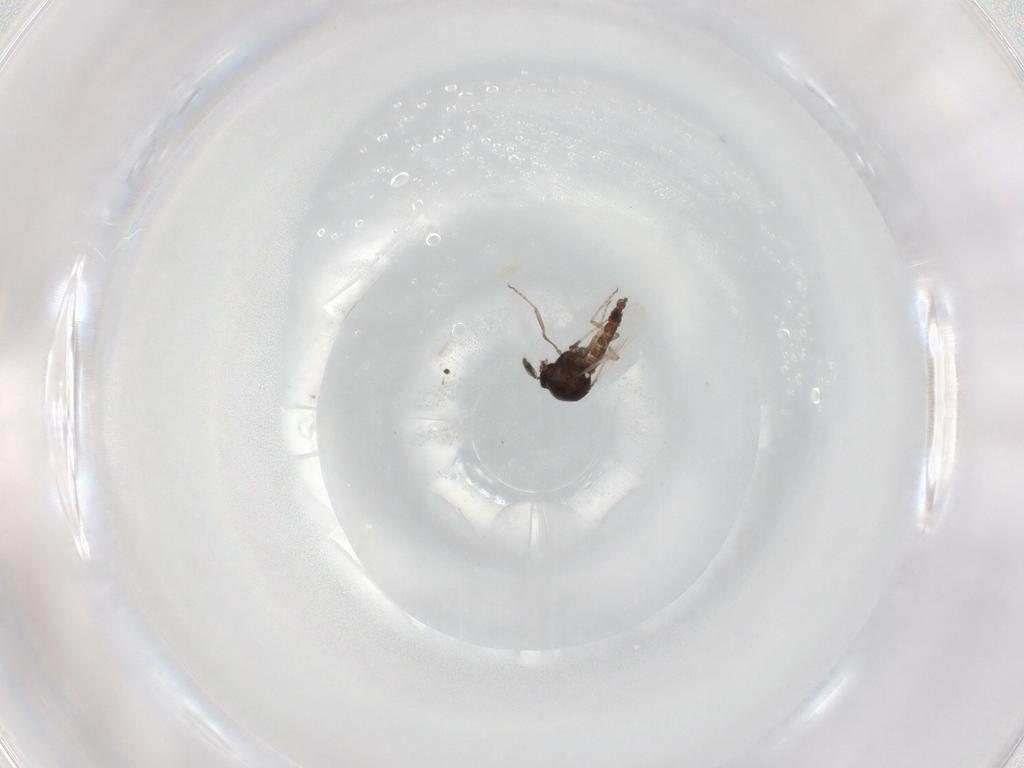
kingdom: Animalia
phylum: Arthropoda
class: Insecta
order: Diptera
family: Ceratopogonidae
